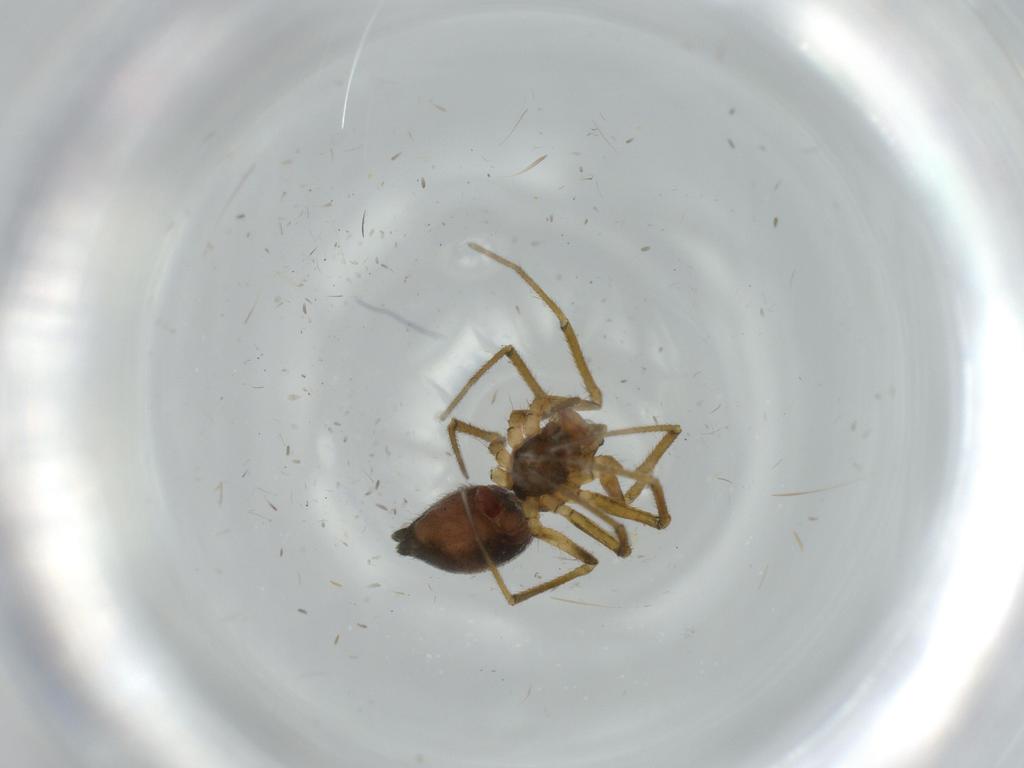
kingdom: Animalia
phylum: Arthropoda
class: Arachnida
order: Araneae
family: Linyphiidae
